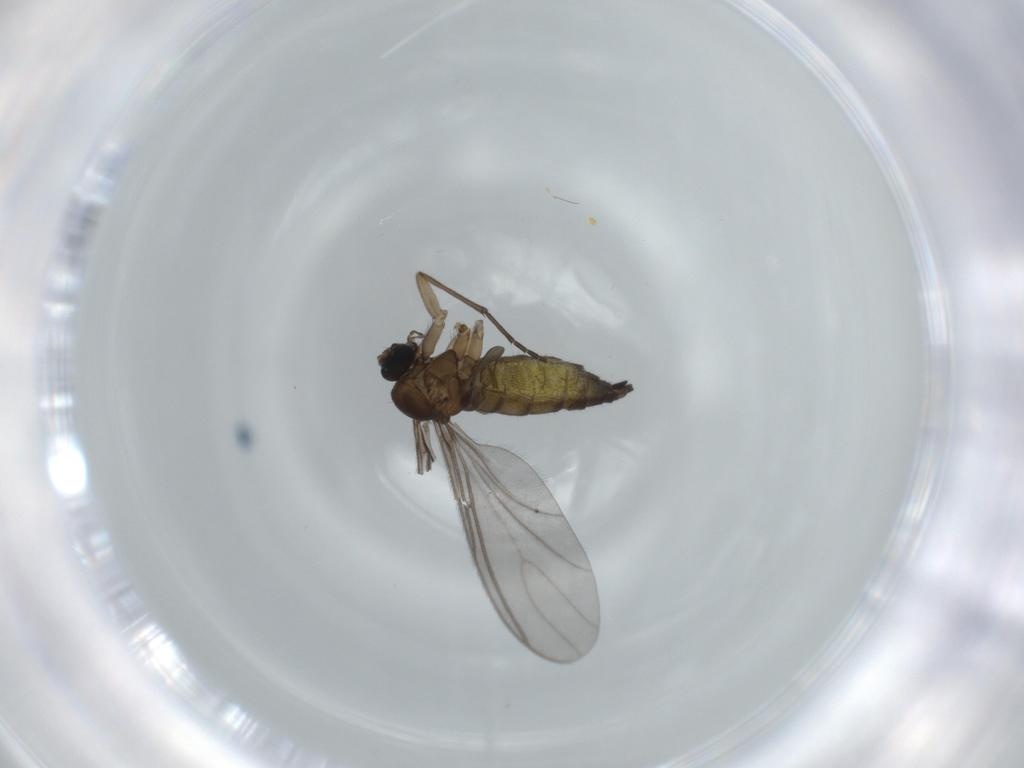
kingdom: Animalia
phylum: Arthropoda
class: Insecta
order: Diptera
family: Sciaridae
